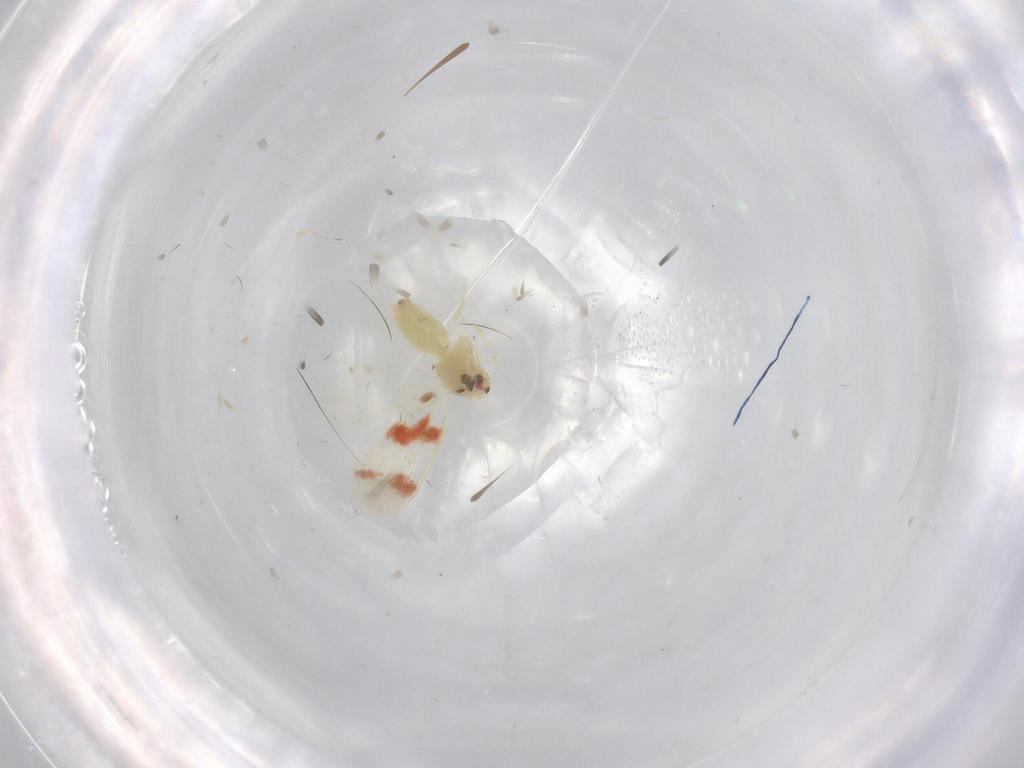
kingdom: Animalia
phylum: Arthropoda
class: Insecta
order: Hemiptera
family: Aleyrodidae
